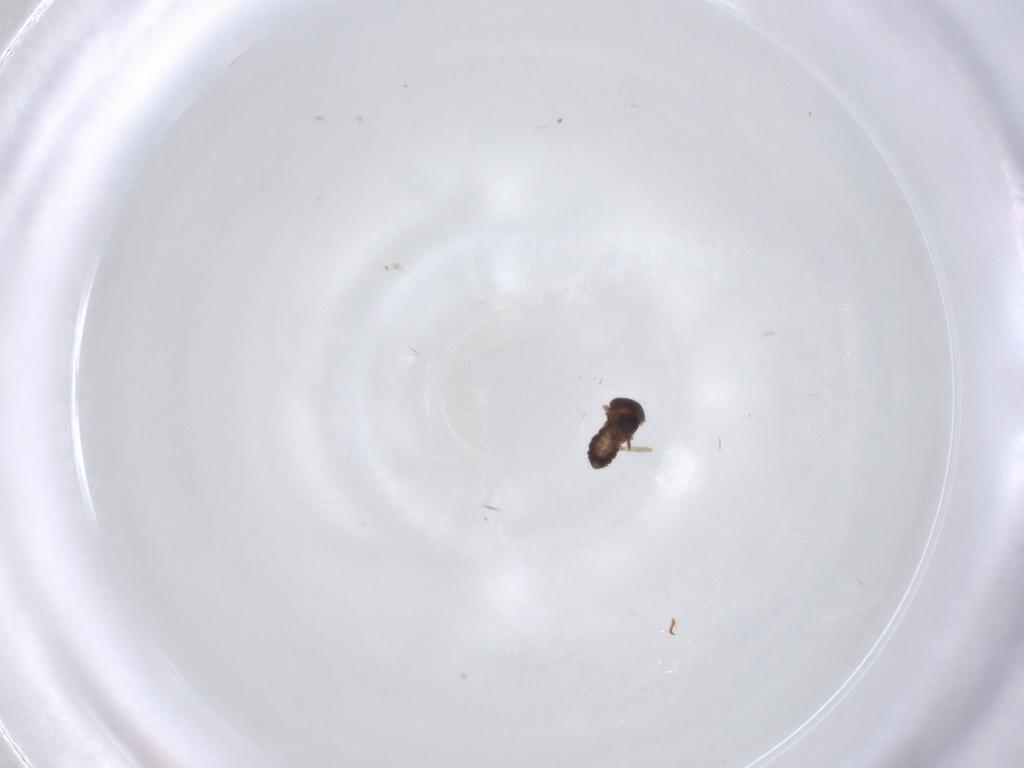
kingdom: Animalia
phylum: Arthropoda
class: Insecta
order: Diptera
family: Ceratopogonidae
